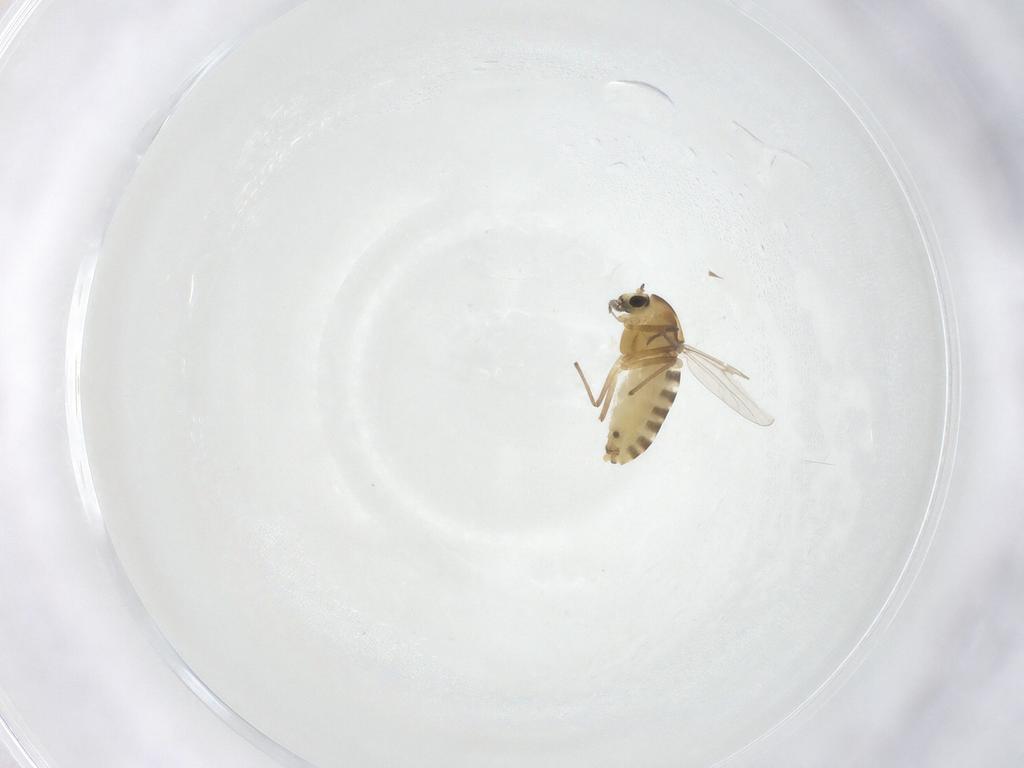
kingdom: Animalia
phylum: Arthropoda
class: Insecta
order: Diptera
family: Chironomidae
